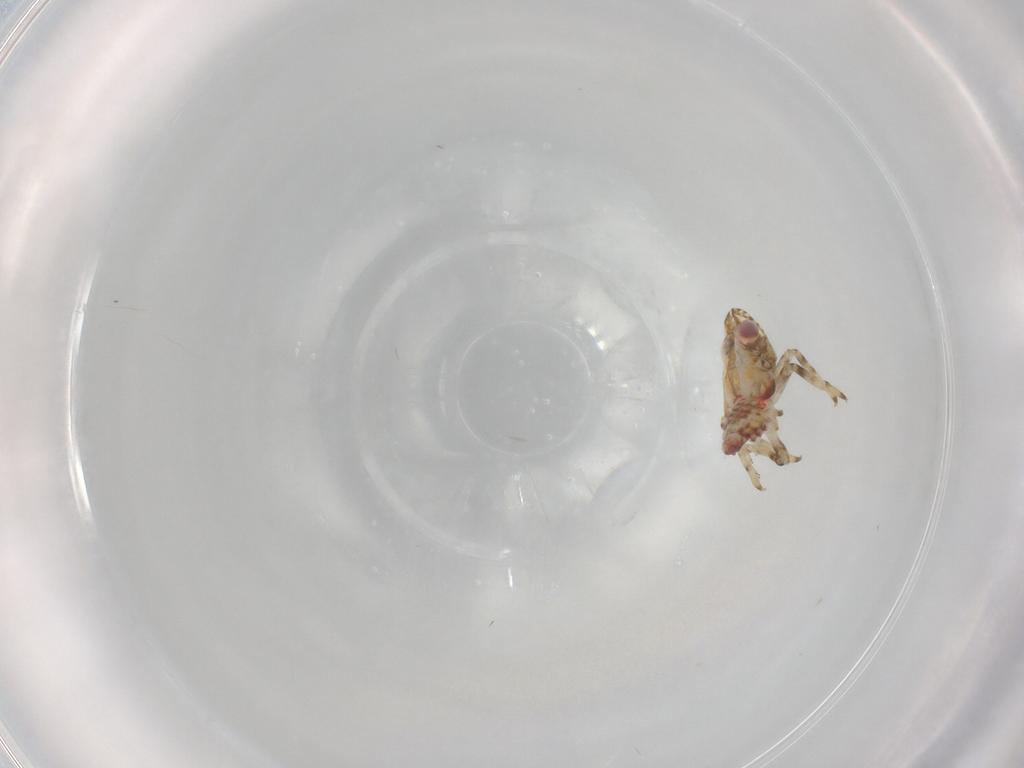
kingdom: Animalia
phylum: Arthropoda
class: Insecta
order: Hemiptera
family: Tropiduchidae
